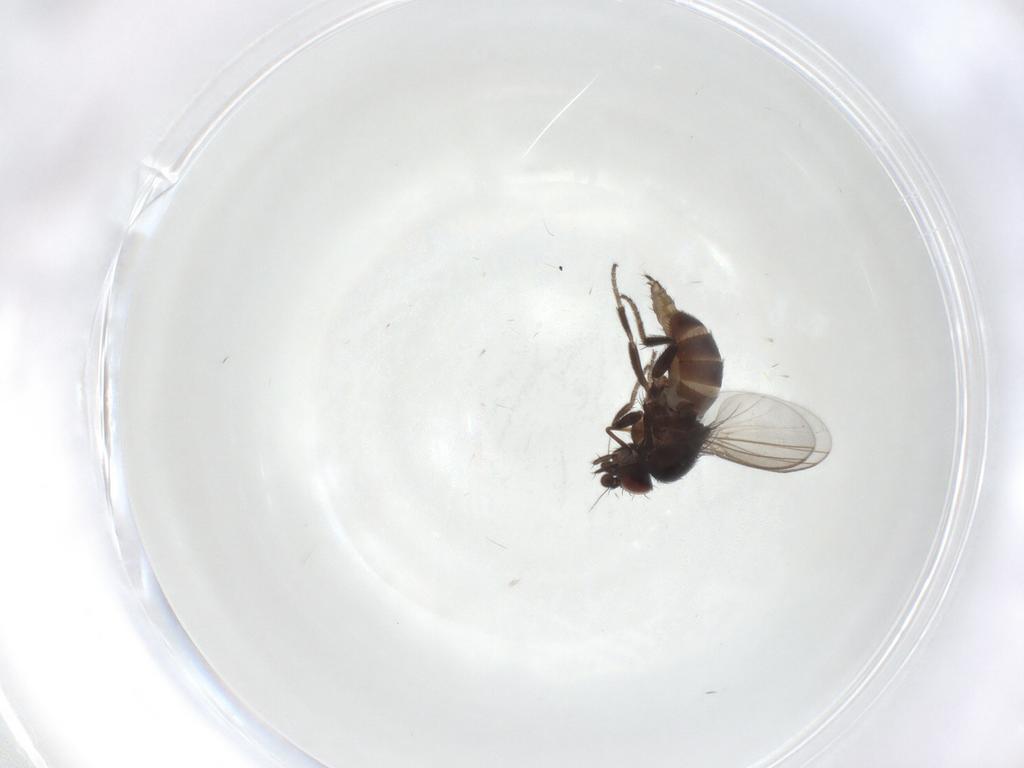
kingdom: Animalia
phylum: Arthropoda
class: Insecta
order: Diptera
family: Milichiidae
